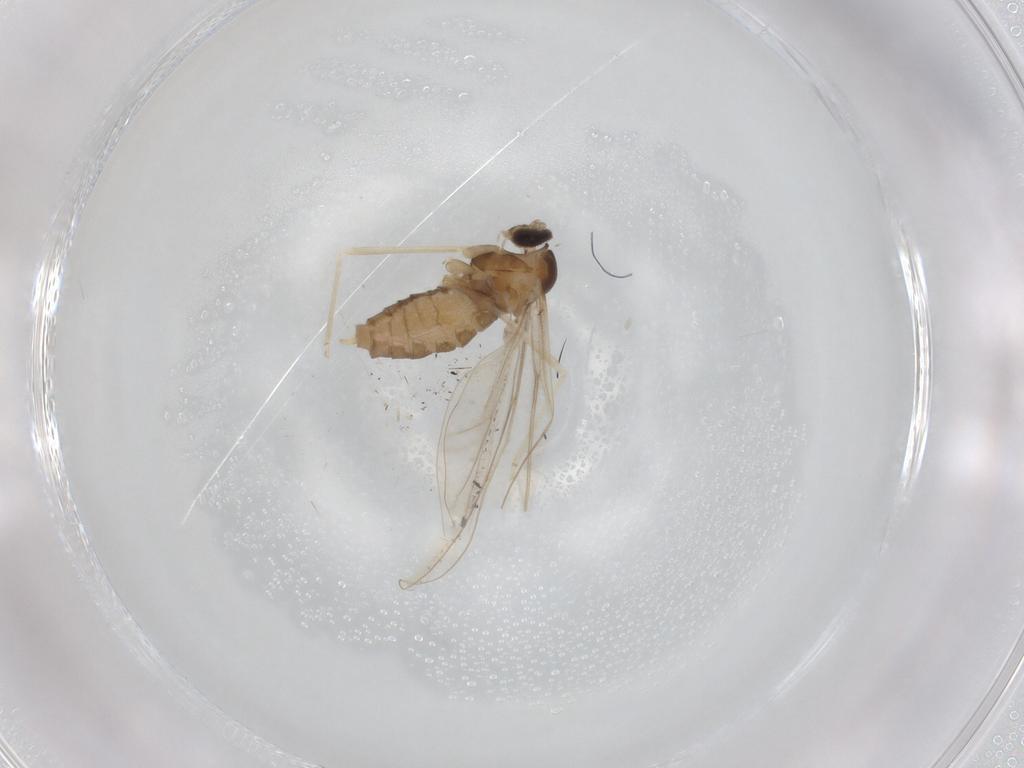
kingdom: Animalia
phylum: Arthropoda
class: Insecta
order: Diptera
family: Cecidomyiidae
